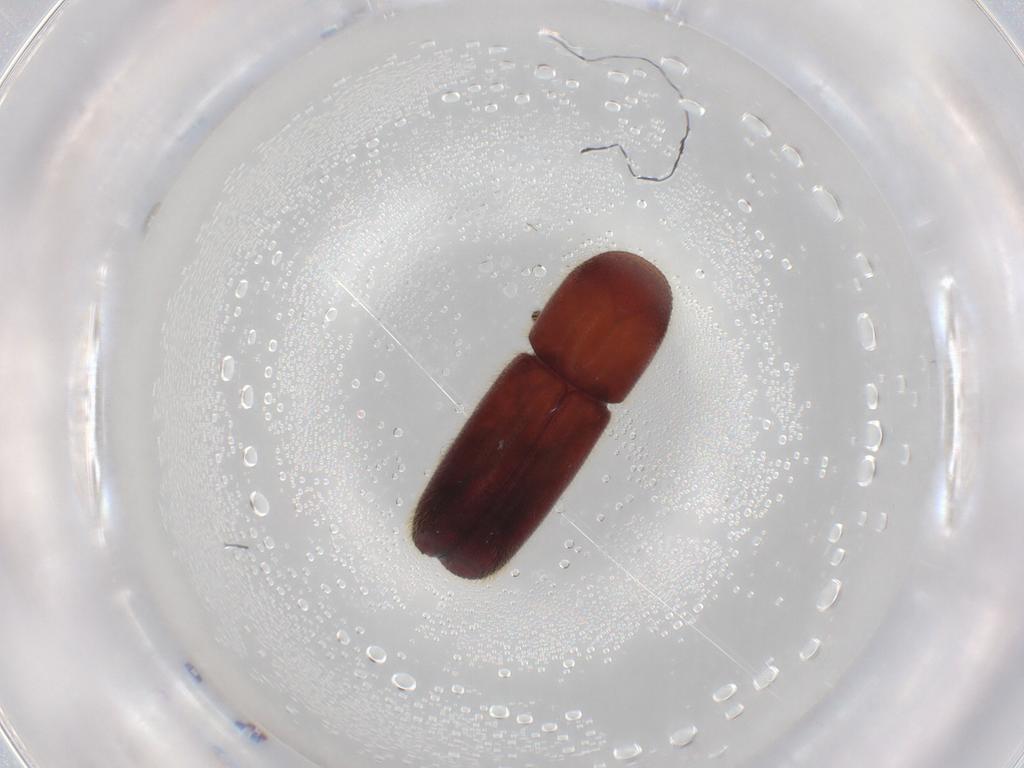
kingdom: Animalia
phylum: Arthropoda
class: Insecta
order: Coleoptera
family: Curculionidae
